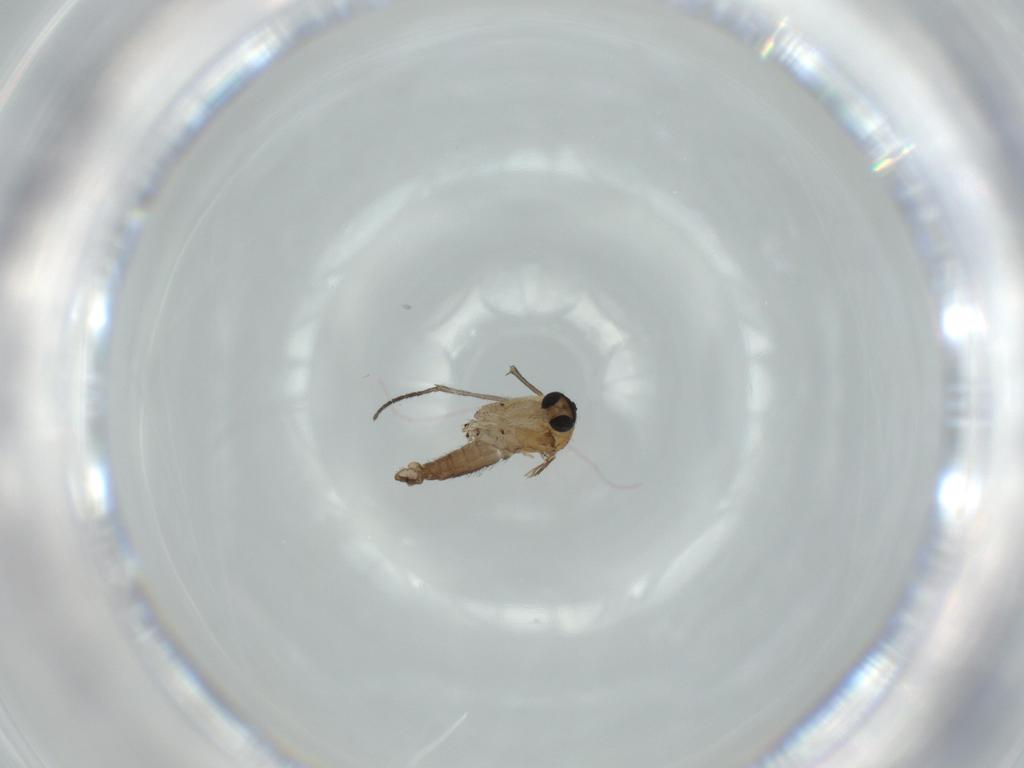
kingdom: Animalia
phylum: Arthropoda
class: Insecta
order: Diptera
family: Sciaridae
